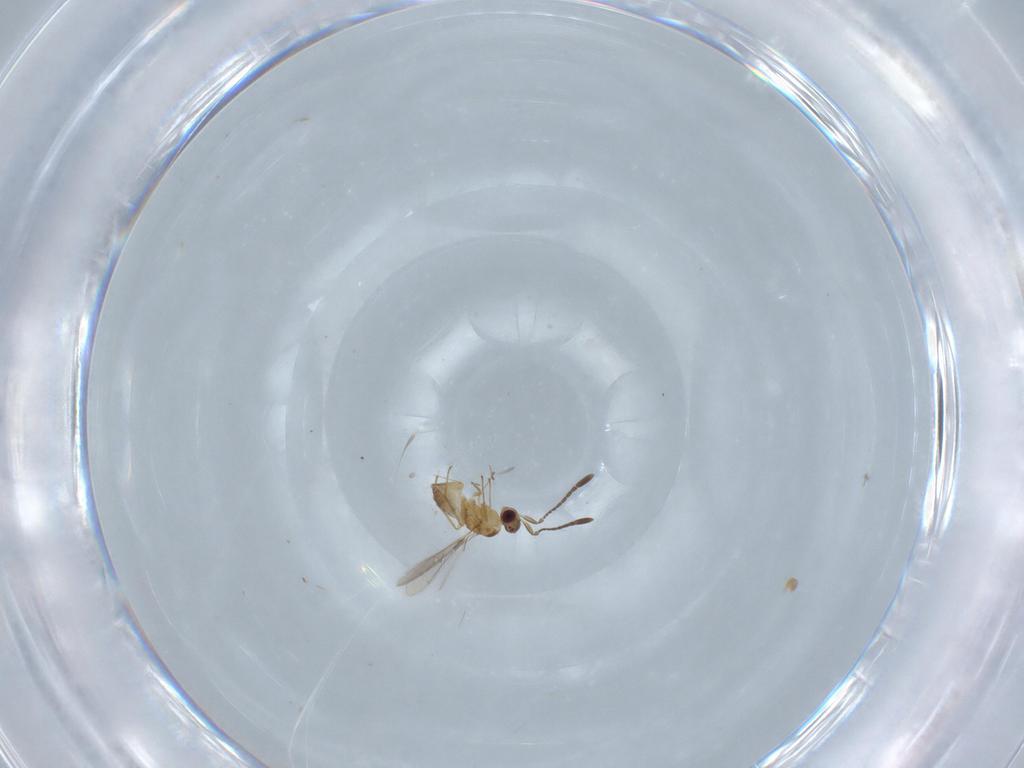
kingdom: Animalia
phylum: Arthropoda
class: Insecta
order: Hymenoptera
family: Mymaridae
